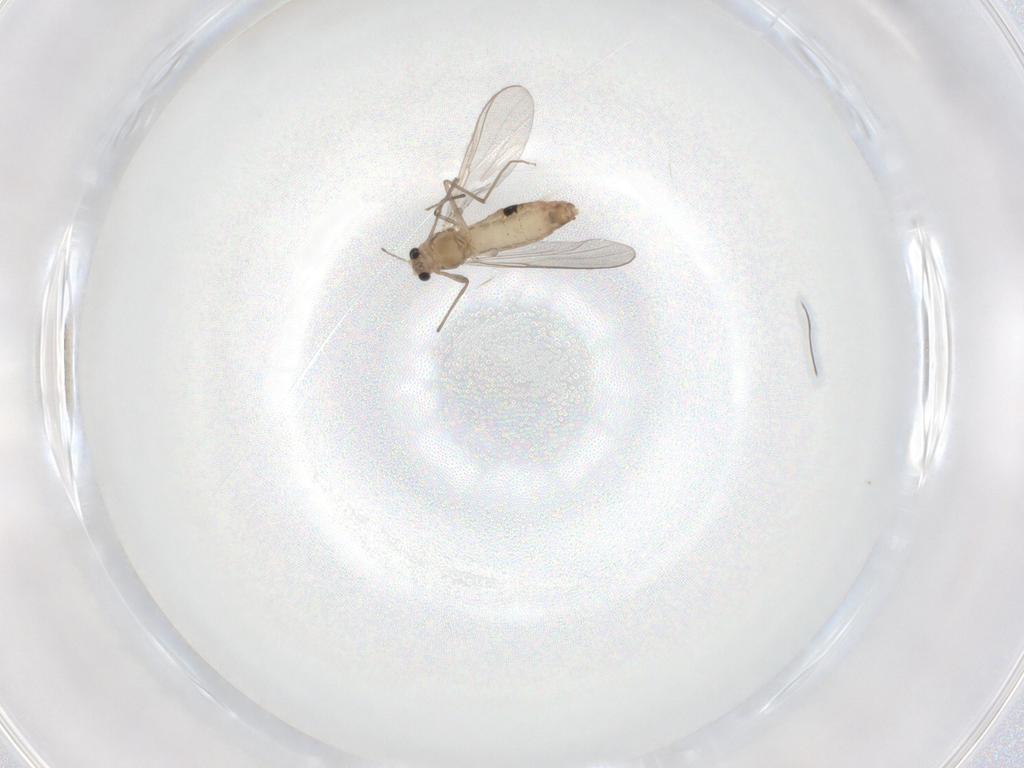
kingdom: Animalia
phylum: Arthropoda
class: Insecta
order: Diptera
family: Chironomidae
